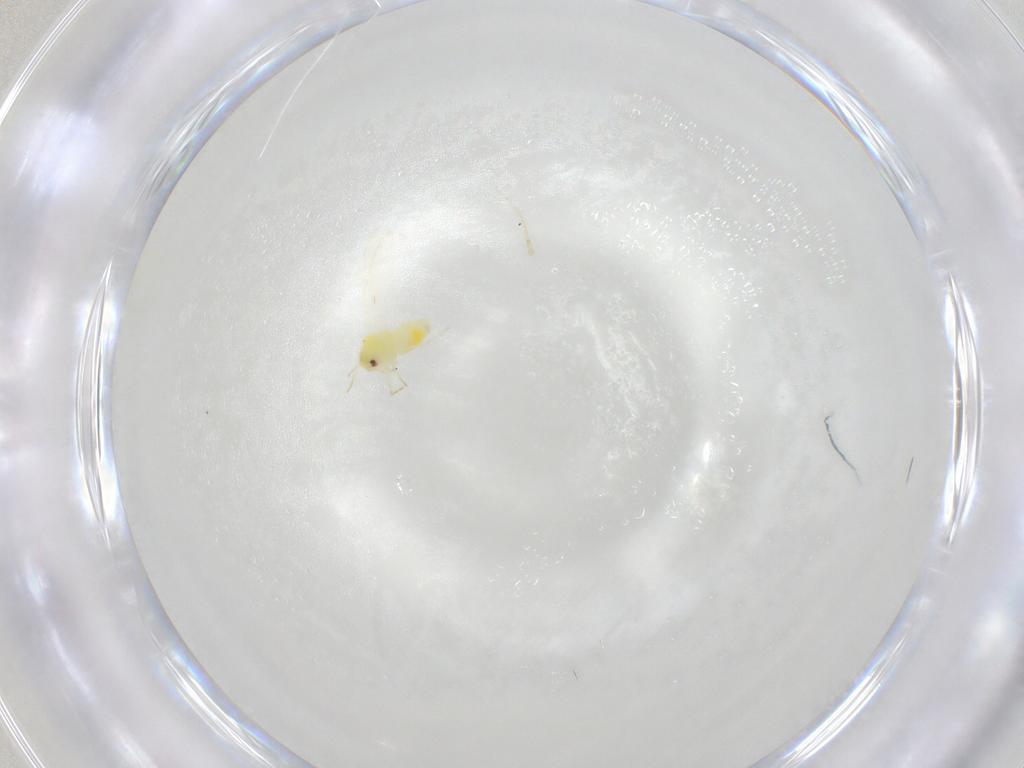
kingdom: Animalia
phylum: Arthropoda
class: Insecta
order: Hemiptera
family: Aleyrodidae
